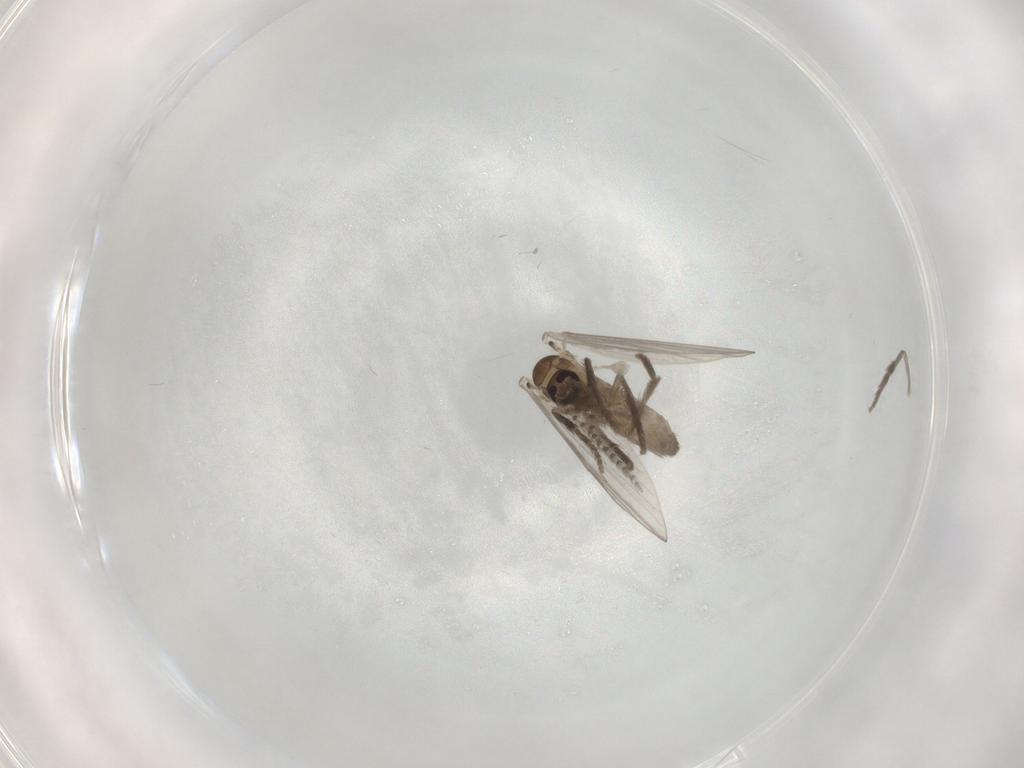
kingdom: Animalia
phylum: Arthropoda
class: Insecta
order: Diptera
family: Psychodidae
